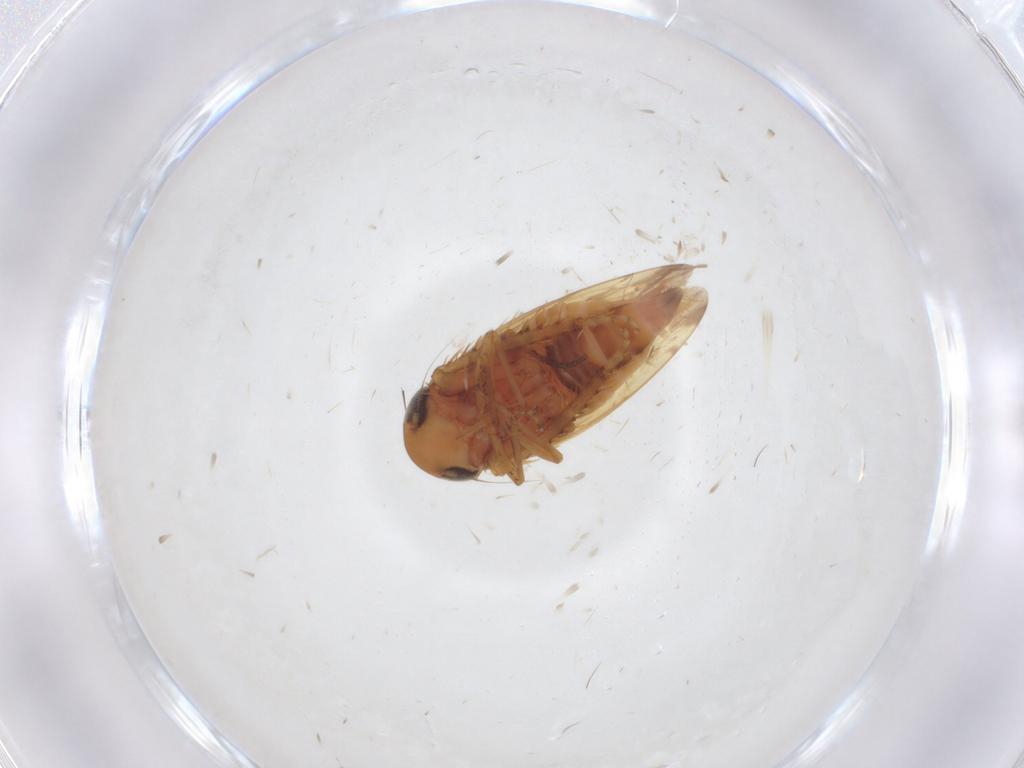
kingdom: Animalia
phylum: Arthropoda
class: Insecta
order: Hemiptera
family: Cicadellidae
